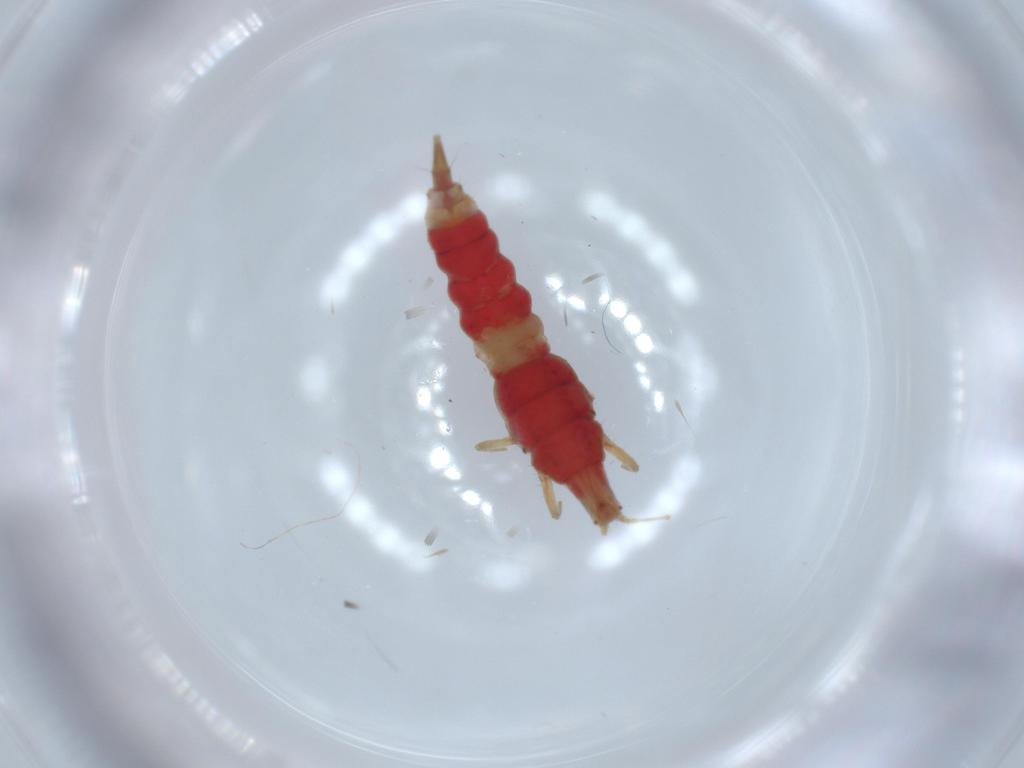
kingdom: Animalia
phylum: Arthropoda
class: Insecta
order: Thysanoptera
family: Phlaeothripidae
